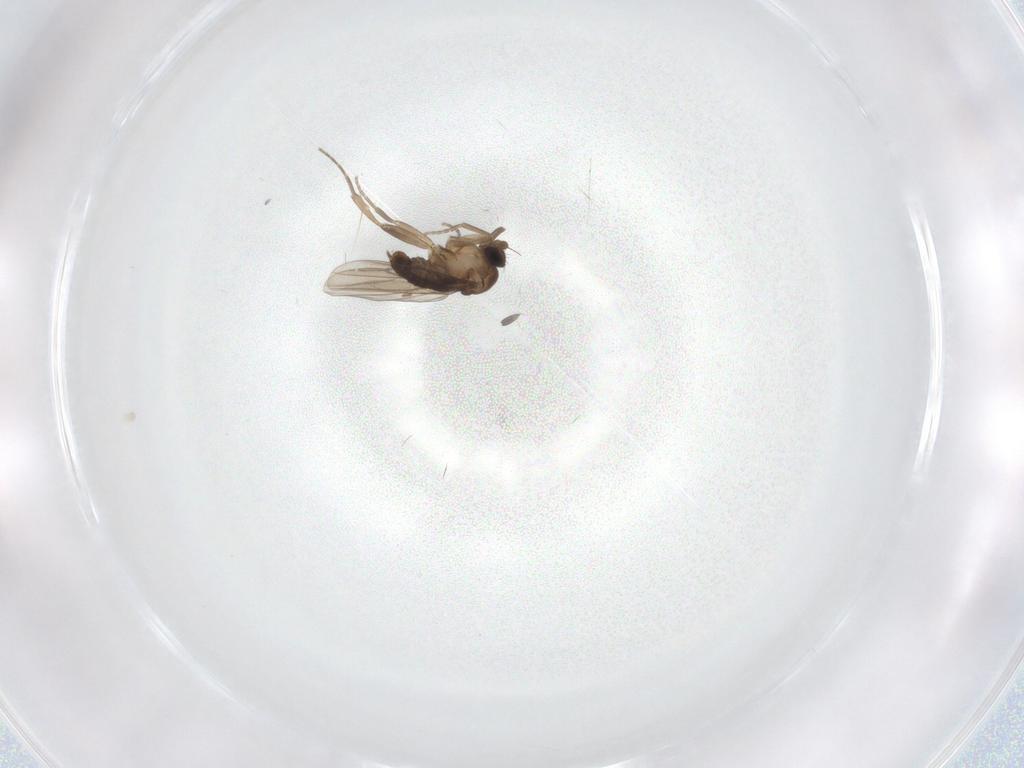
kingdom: Animalia
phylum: Arthropoda
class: Insecta
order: Diptera
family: Phoridae
